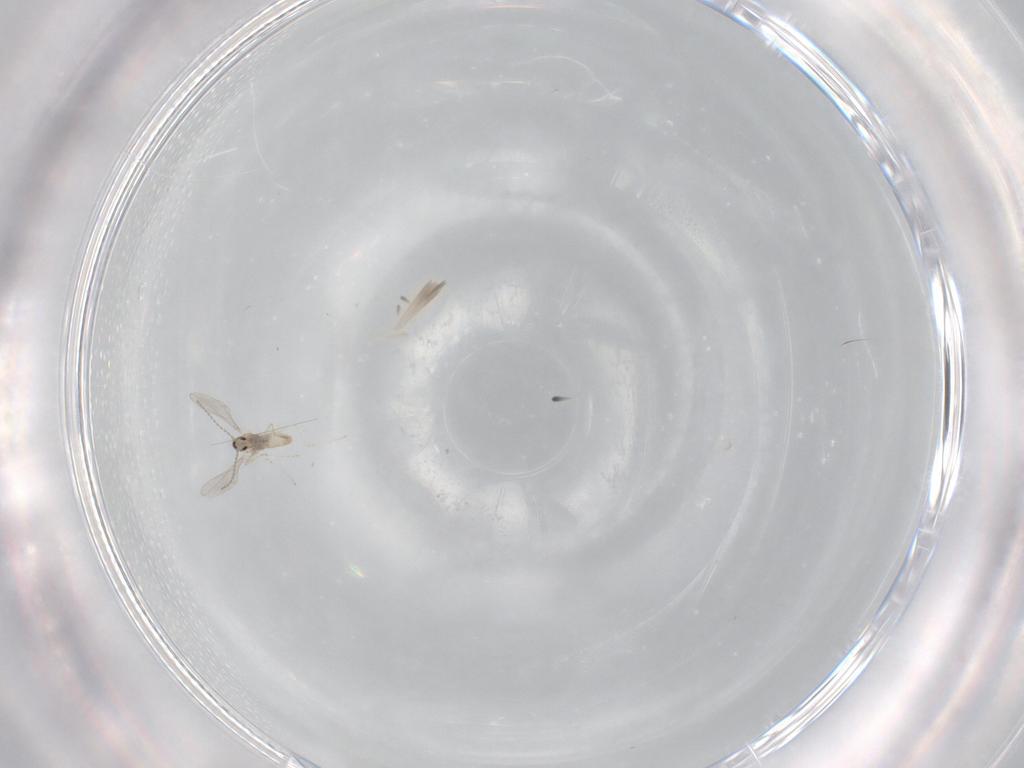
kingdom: Animalia
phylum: Arthropoda
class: Insecta
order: Diptera
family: Cecidomyiidae
